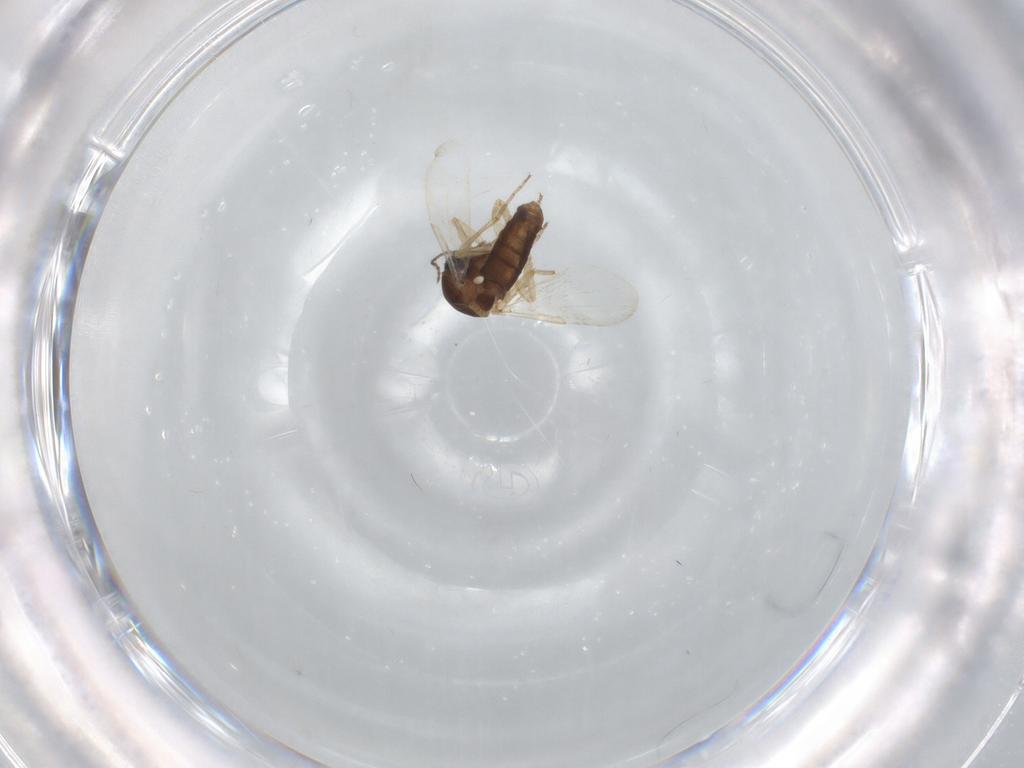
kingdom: Animalia
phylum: Arthropoda
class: Insecta
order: Diptera
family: Ceratopogonidae
